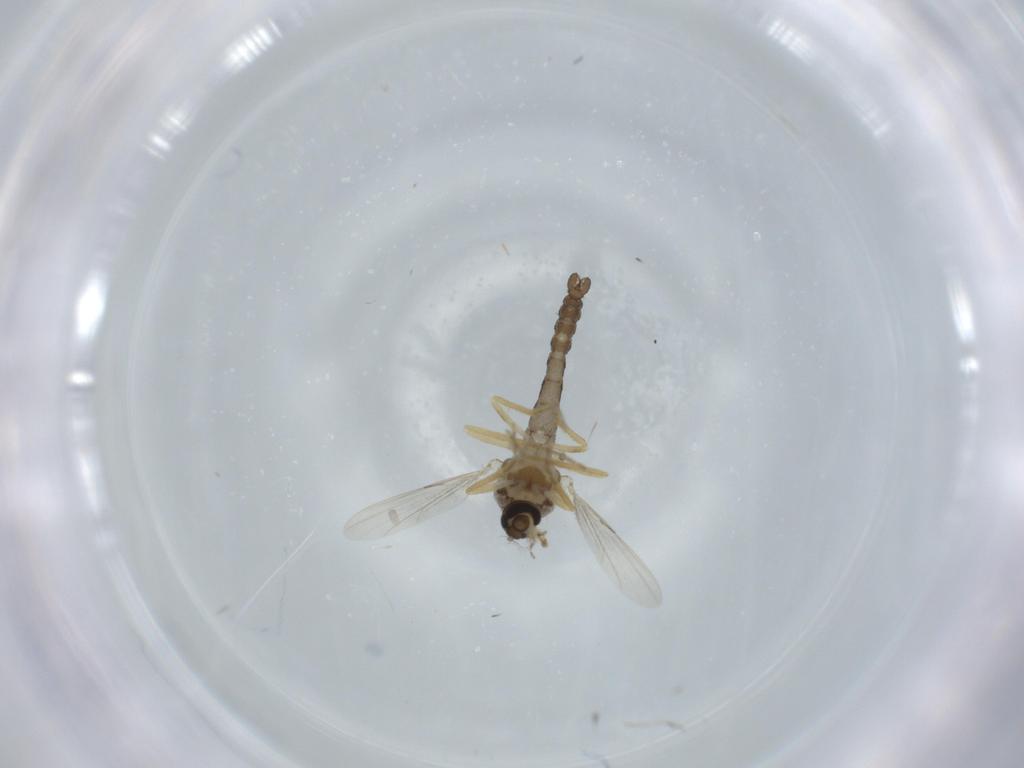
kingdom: Animalia
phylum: Arthropoda
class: Insecta
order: Diptera
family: Ceratopogonidae
